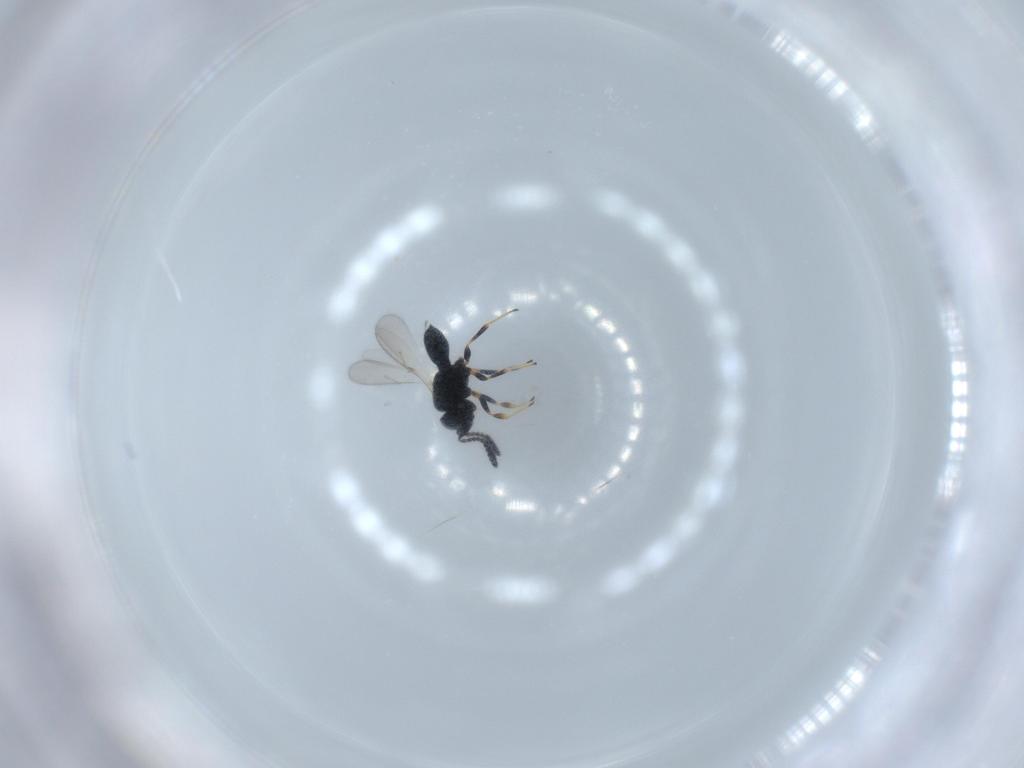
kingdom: Animalia
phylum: Arthropoda
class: Insecta
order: Hymenoptera
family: Scelionidae
